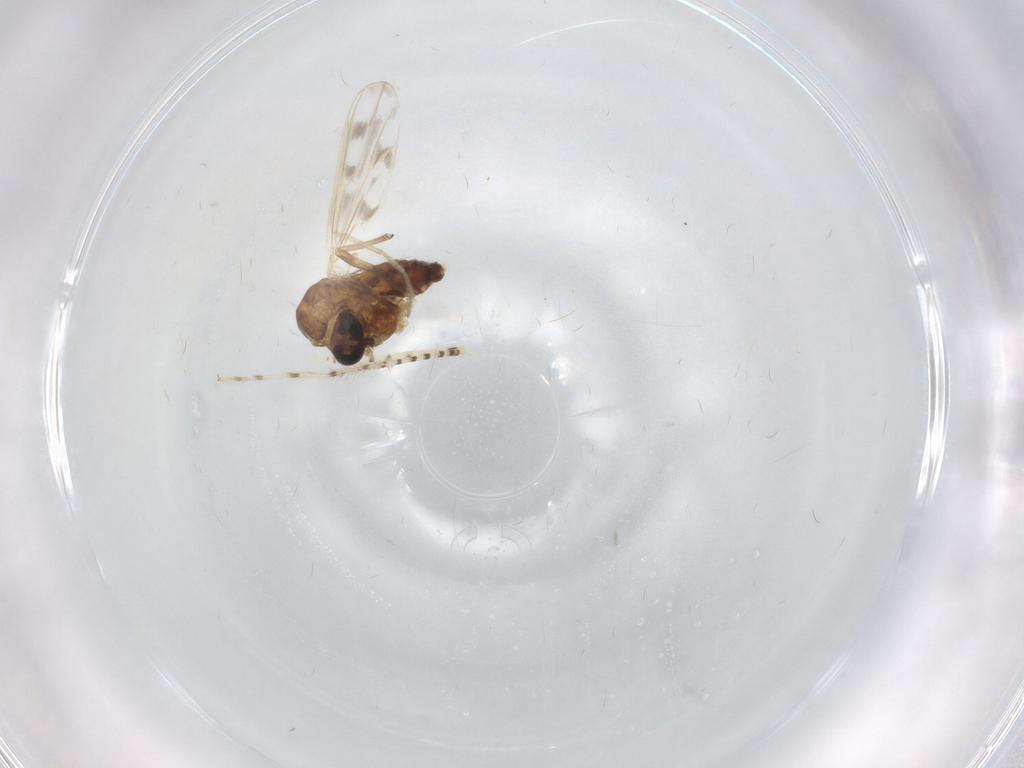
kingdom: Animalia
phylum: Arthropoda
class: Insecta
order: Diptera
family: Chironomidae
